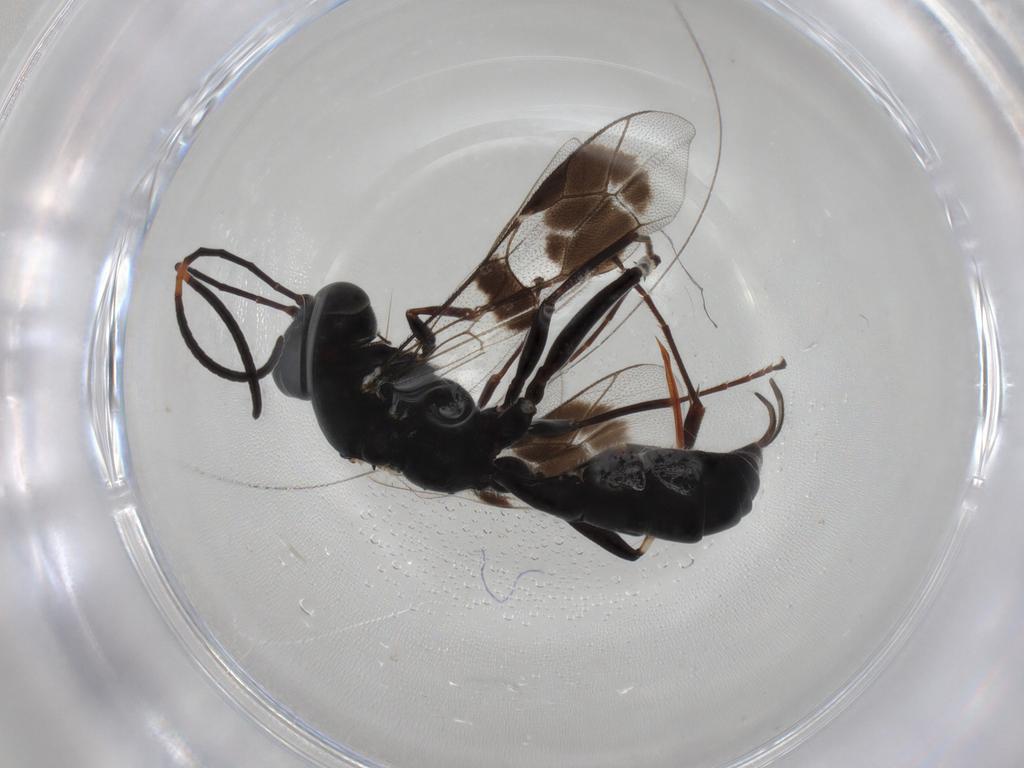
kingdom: Animalia
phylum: Arthropoda
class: Insecta
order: Hymenoptera
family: Ichneumonidae
